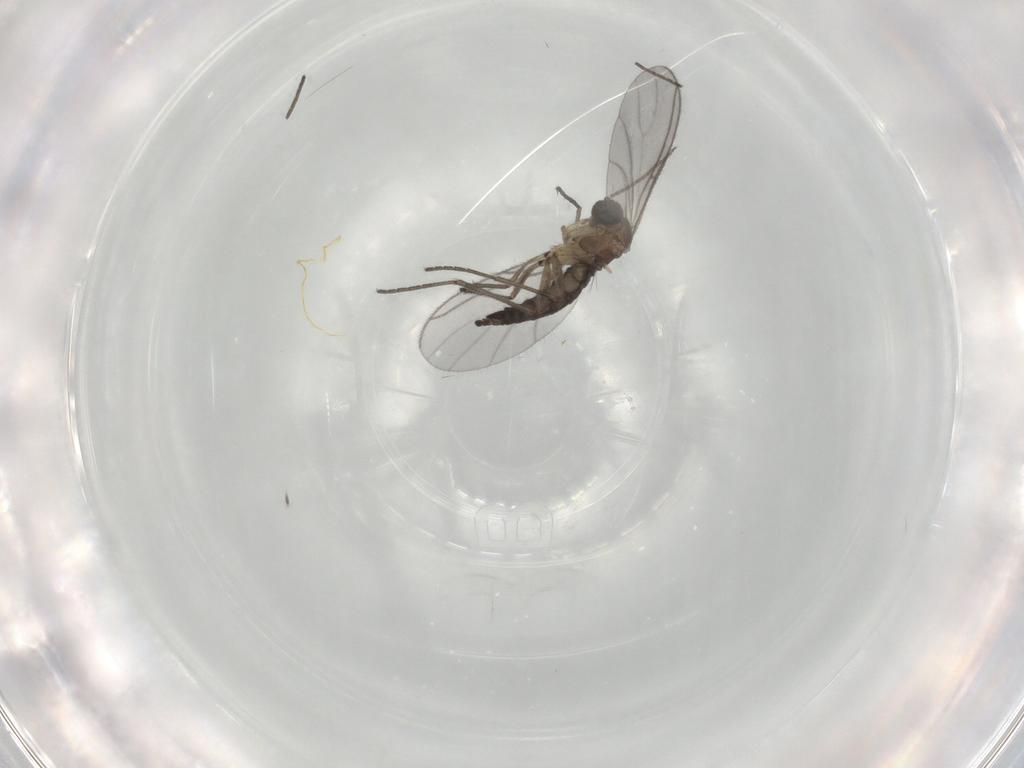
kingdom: Animalia
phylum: Arthropoda
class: Insecta
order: Diptera
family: Sciaridae
